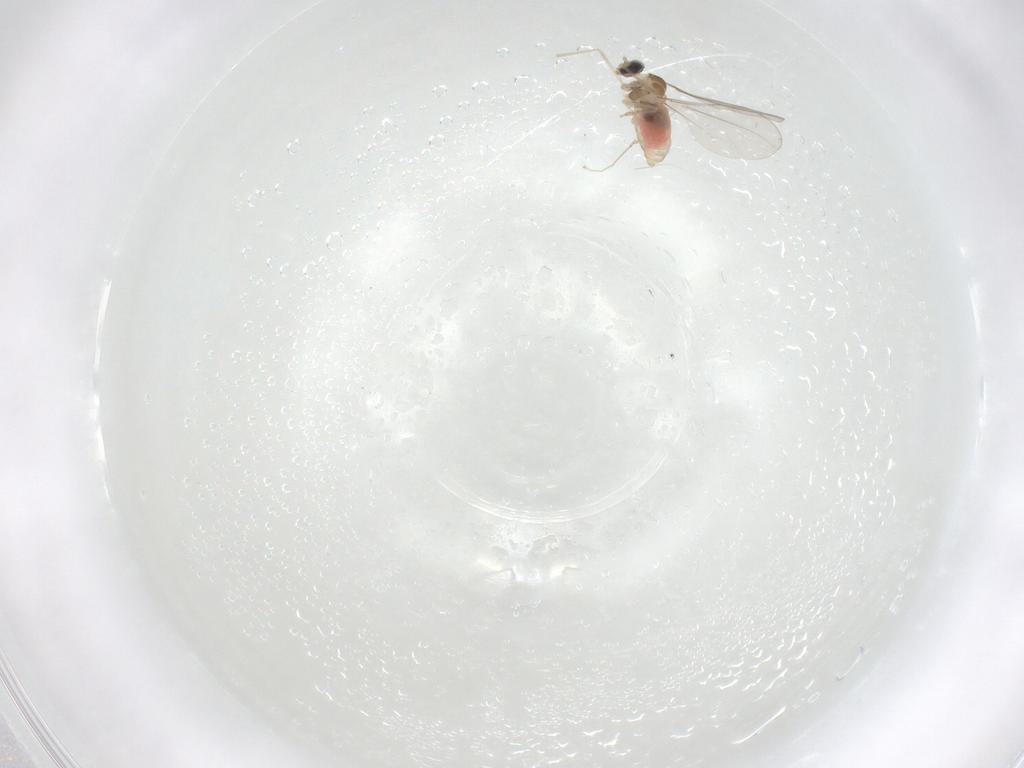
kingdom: Animalia
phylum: Arthropoda
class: Insecta
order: Diptera
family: Cecidomyiidae
